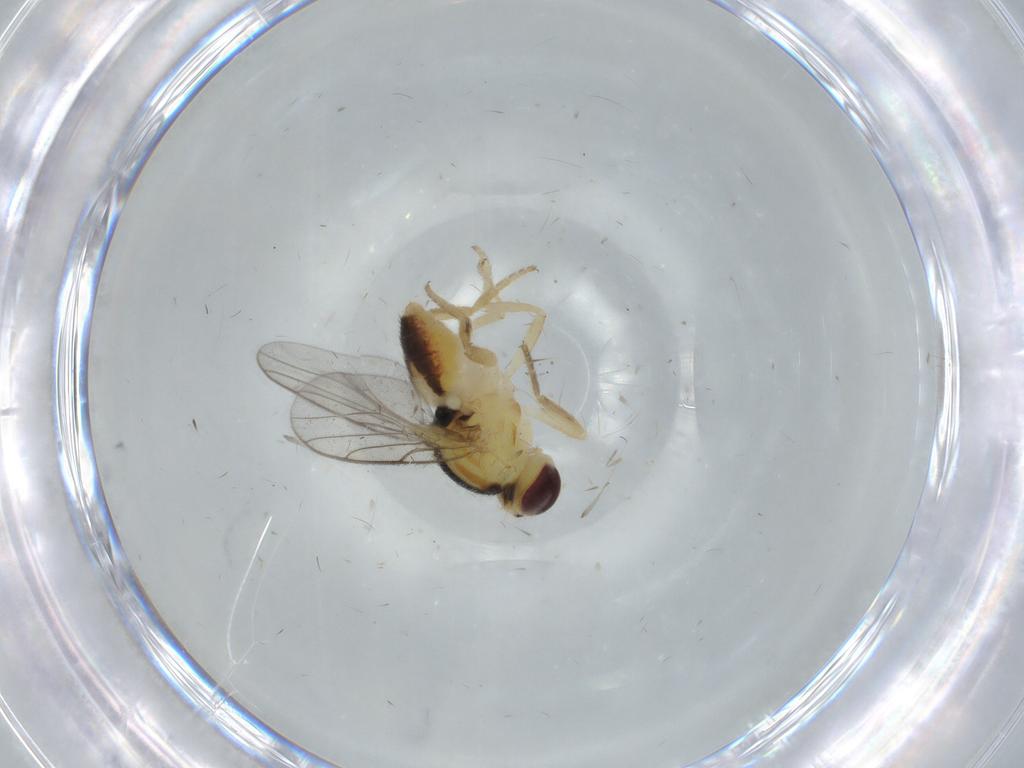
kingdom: Animalia
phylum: Arthropoda
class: Insecta
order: Diptera
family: Chloropidae
